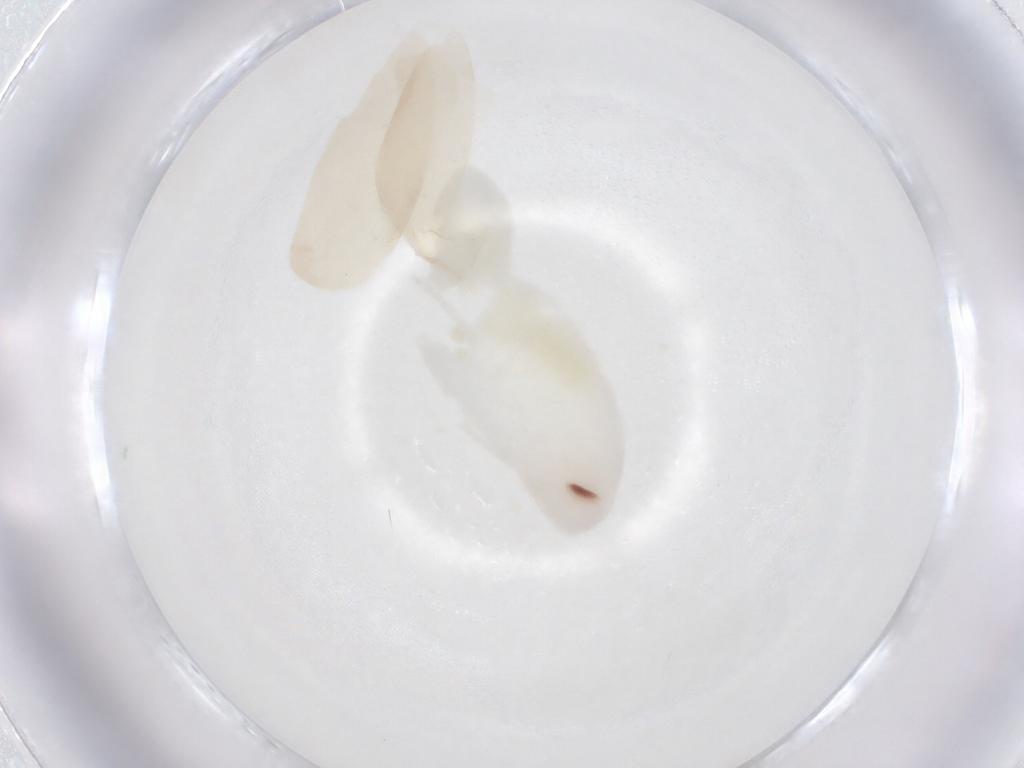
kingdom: Animalia
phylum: Arthropoda
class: Insecta
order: Blattodea
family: Ectobiidae
